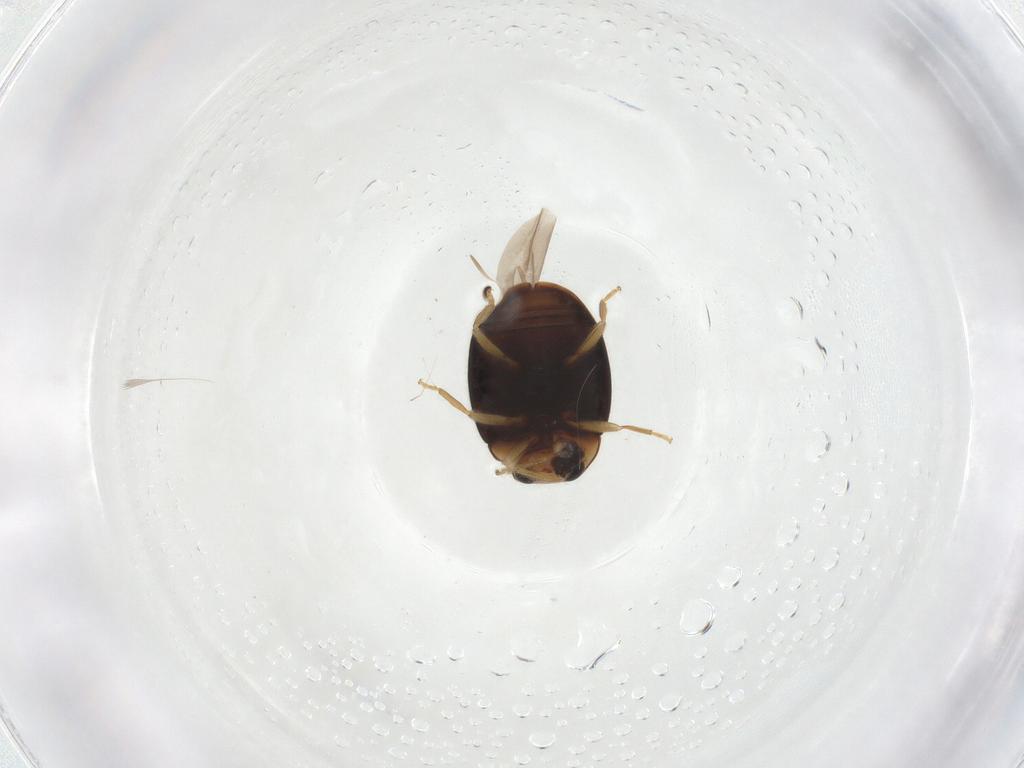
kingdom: Animalia
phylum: Arthropoda
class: Insecta
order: Coleoptera
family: Coccinellidae
